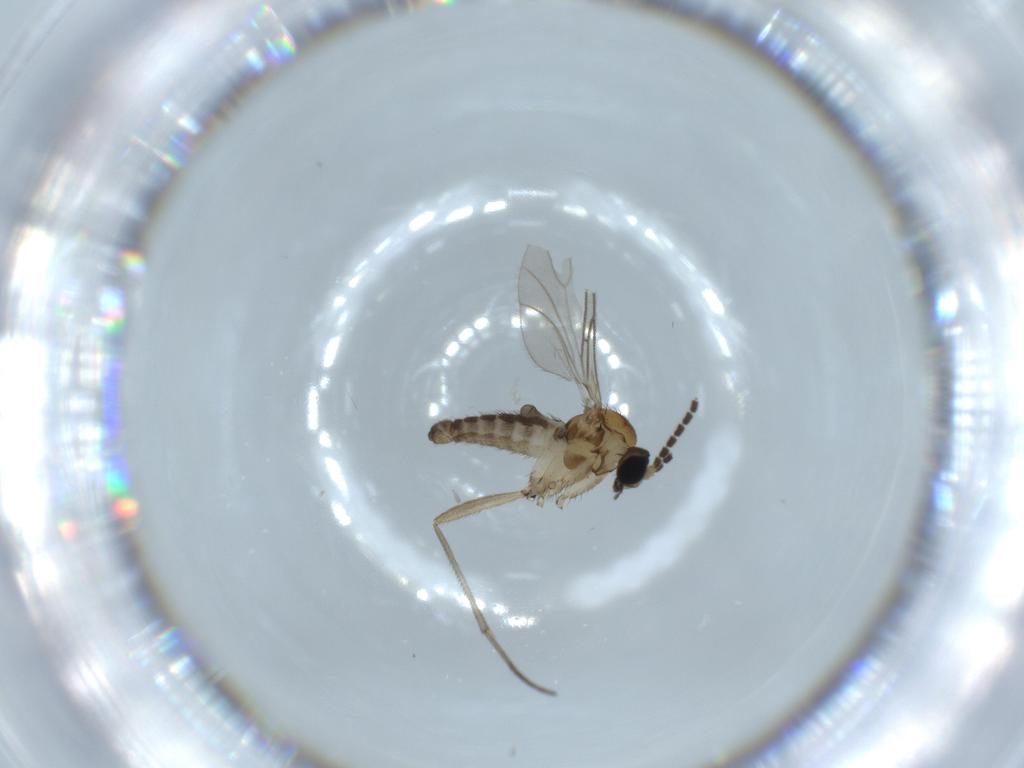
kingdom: Animalia
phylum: Arthropoda
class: Insecta
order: Diptera
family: Sciaridae
